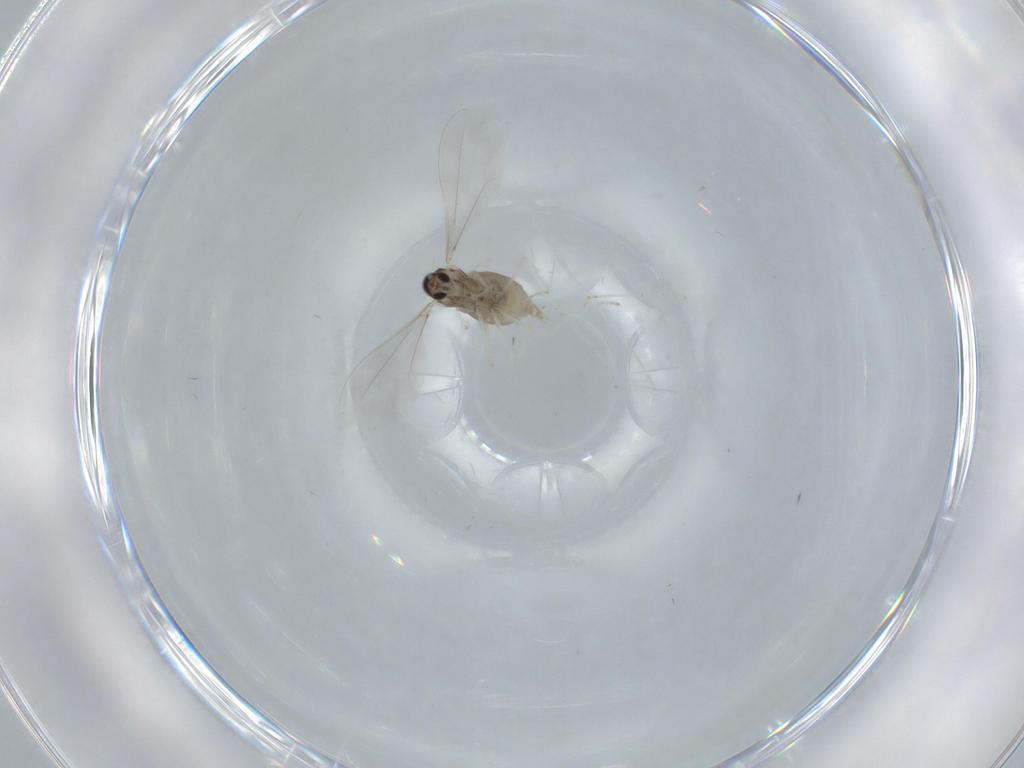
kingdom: Animalia
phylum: Arthropoda
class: Insecta
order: Diptera
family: Cecidomyiidae
